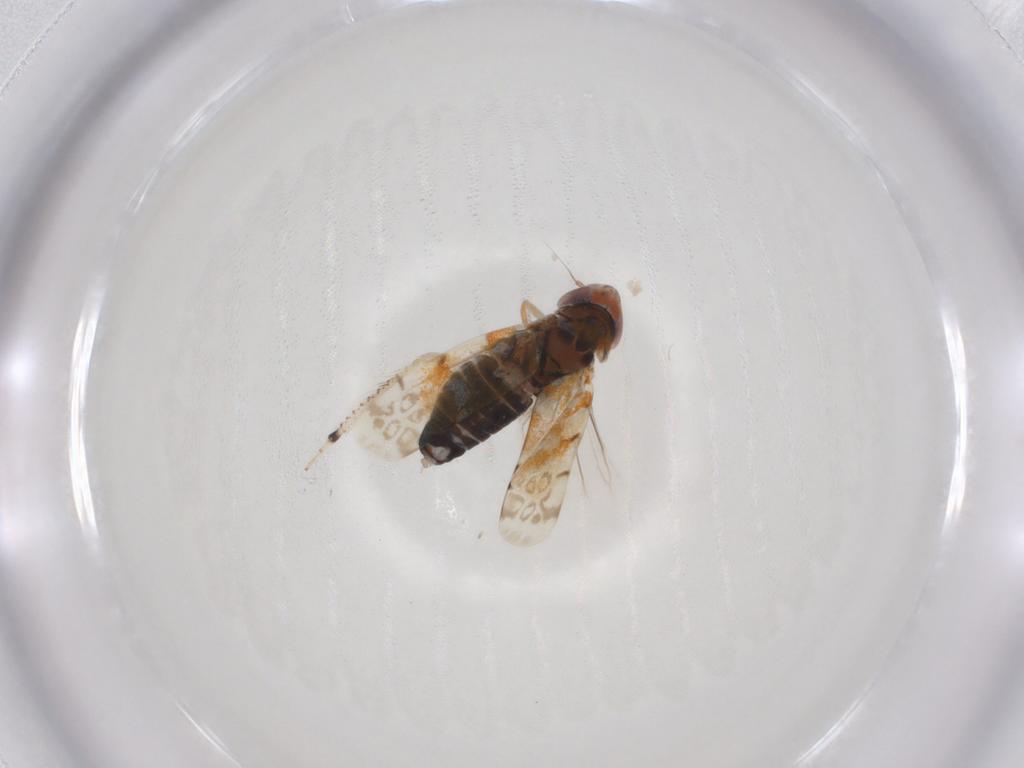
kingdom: Animalia
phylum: Arthropoda
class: Insecta
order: Hemiptera
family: Cicadellidae
